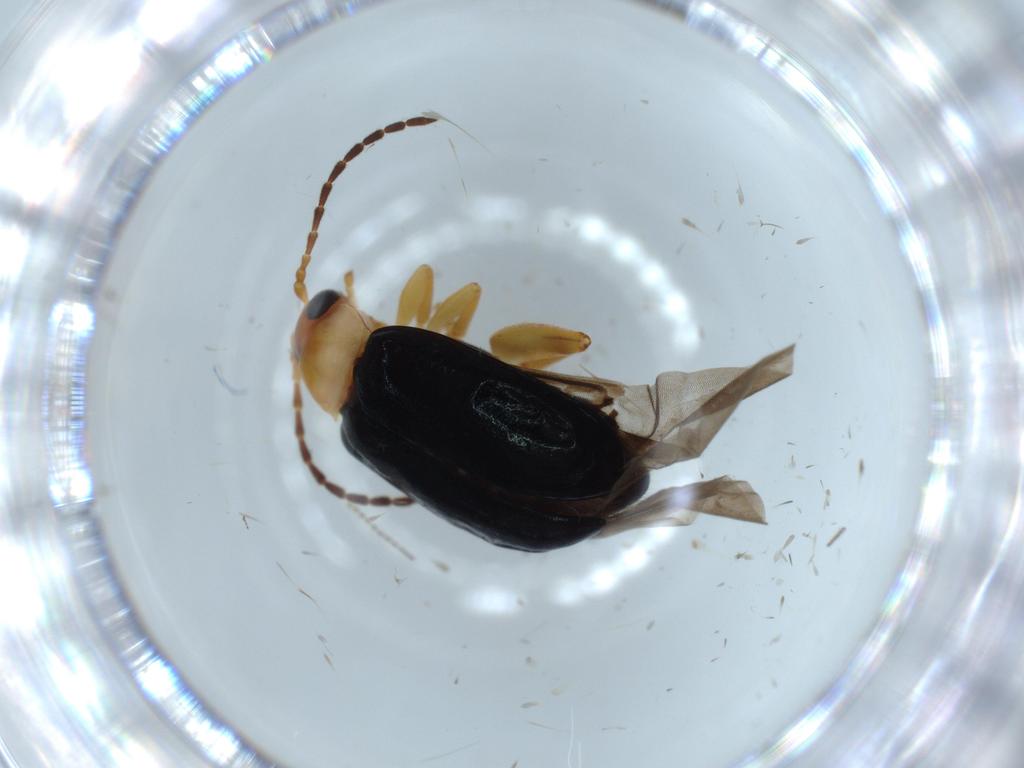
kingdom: Animalia
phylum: Arthropoda
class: Insecta
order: Coleoptera
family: Chrysomelidae
